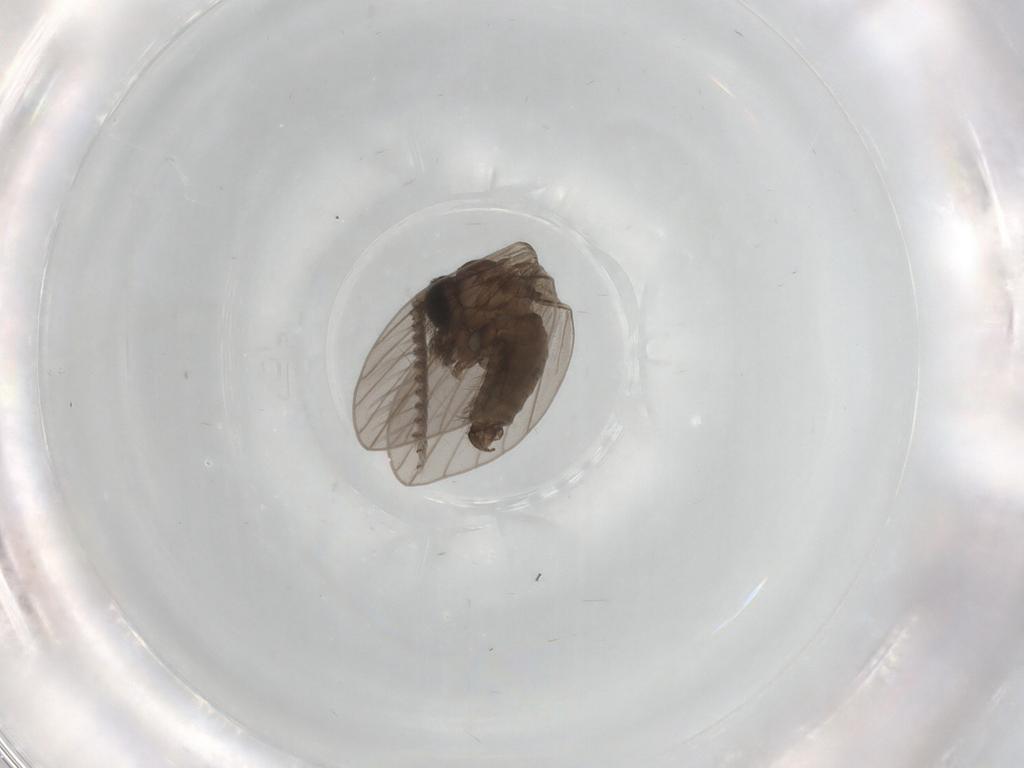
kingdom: Animalia
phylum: Arthropoda
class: Insecta
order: Diptera
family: Psychodidae
